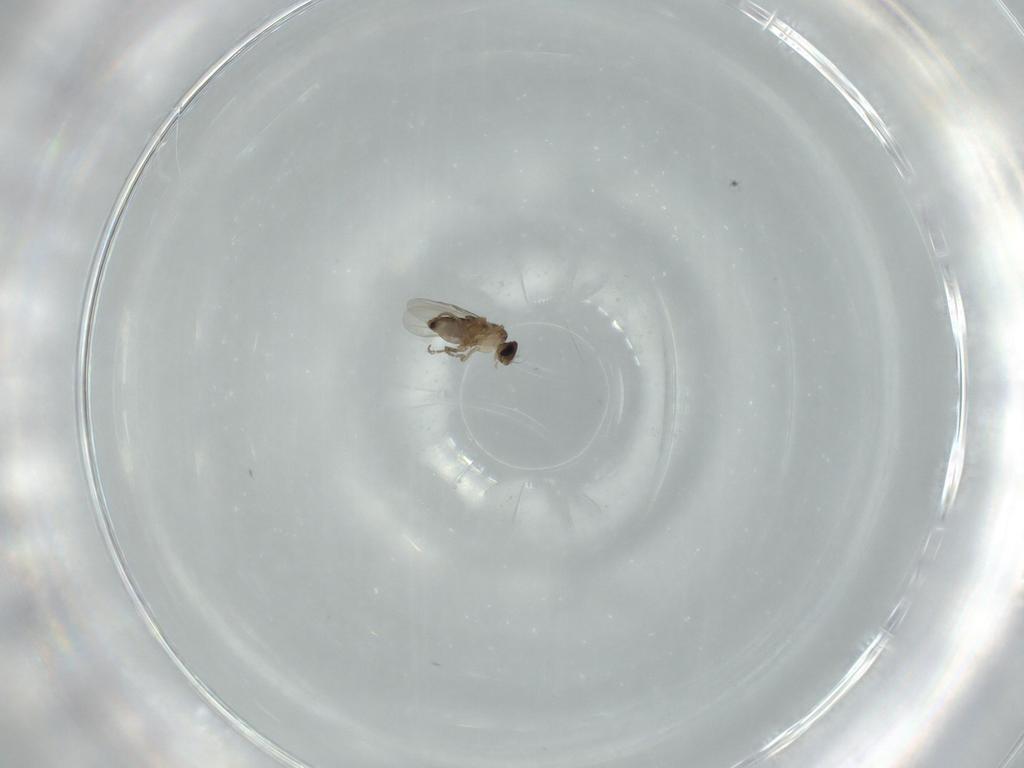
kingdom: Animalia
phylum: Arthropoda
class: Insecta
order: Diptera
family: Phoridae
